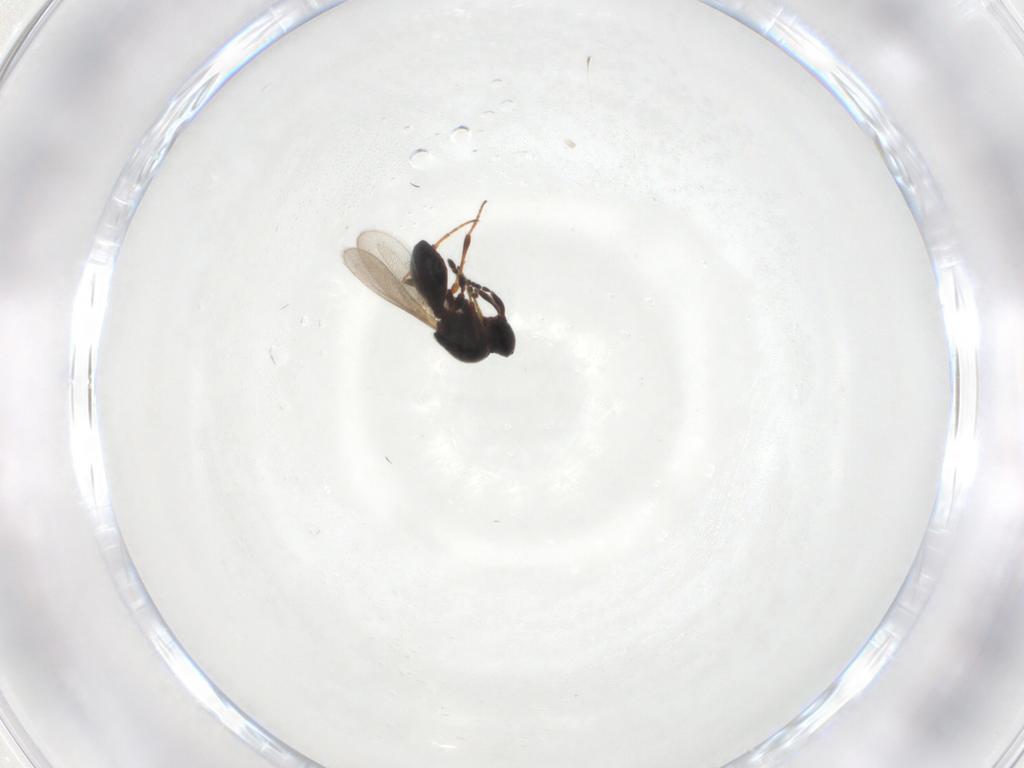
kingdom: Animalia
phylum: Arthropoda
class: Insecta
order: Hymenoptera
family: Platygastridae
